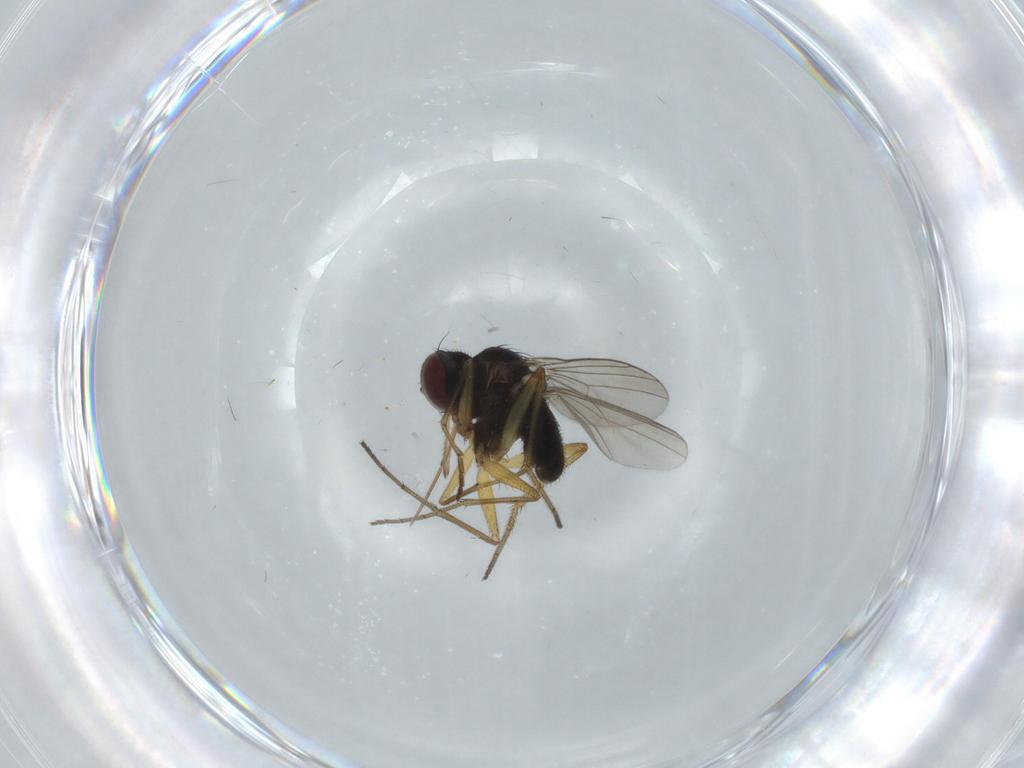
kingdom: Animalia
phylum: Arthropoda
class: Insecta
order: Diptera
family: Dolichopodidae
